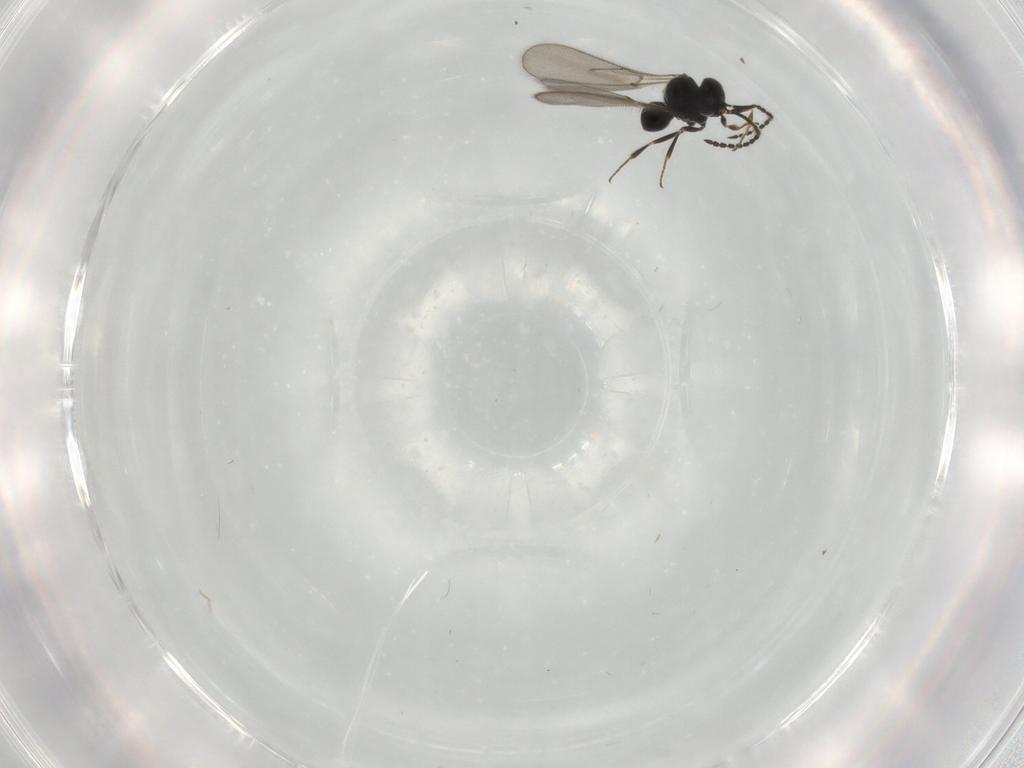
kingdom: Animalia
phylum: Arthropoda
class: Insecta
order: Hymenoptera
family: Scelionidae
